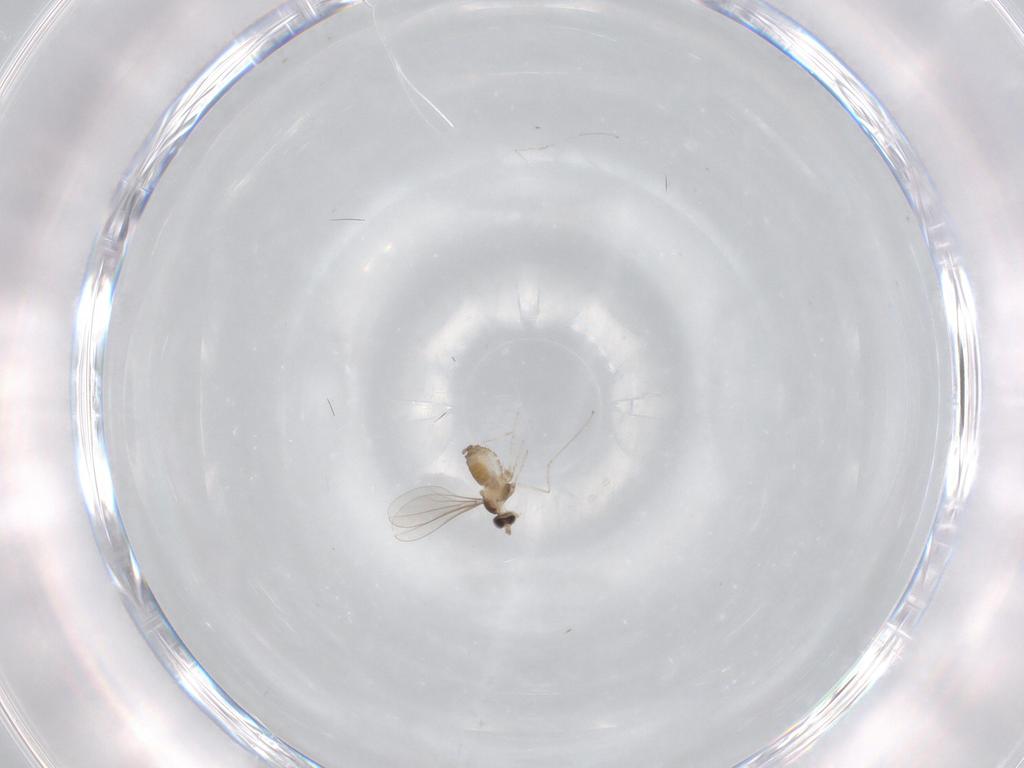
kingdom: Animalia
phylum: Arthropoda
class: Insecta
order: Diptera
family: Cecidomyiidae
